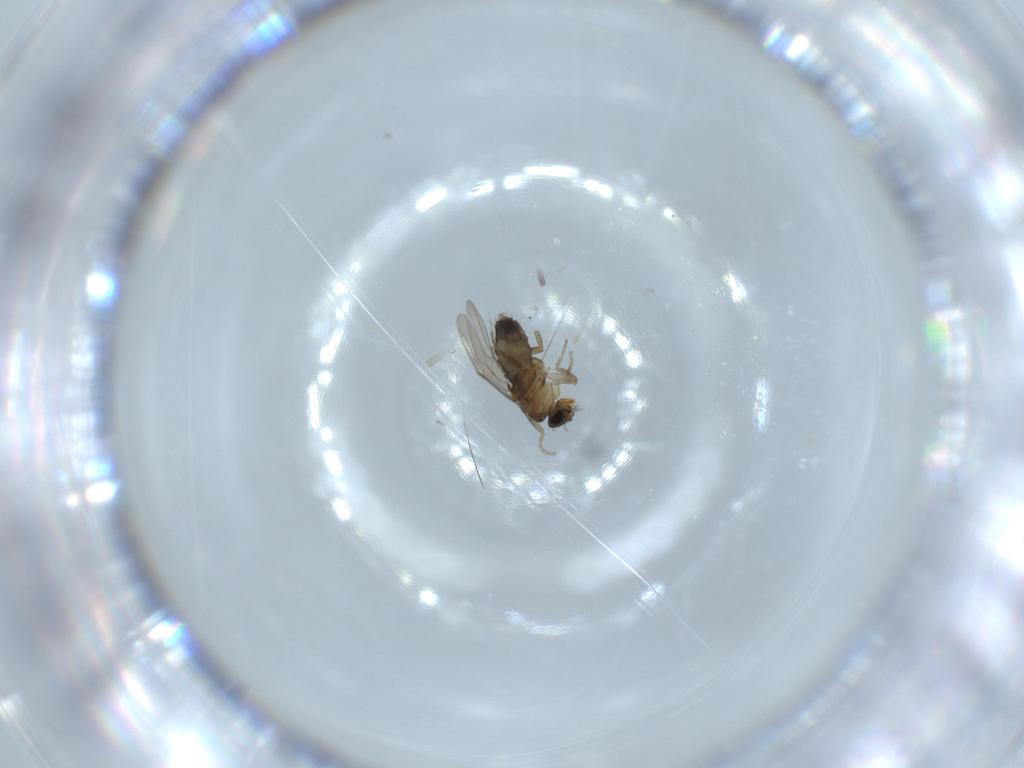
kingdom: Animalia
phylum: Arthropoda
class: Insecta
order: Diptera
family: Phoridae
